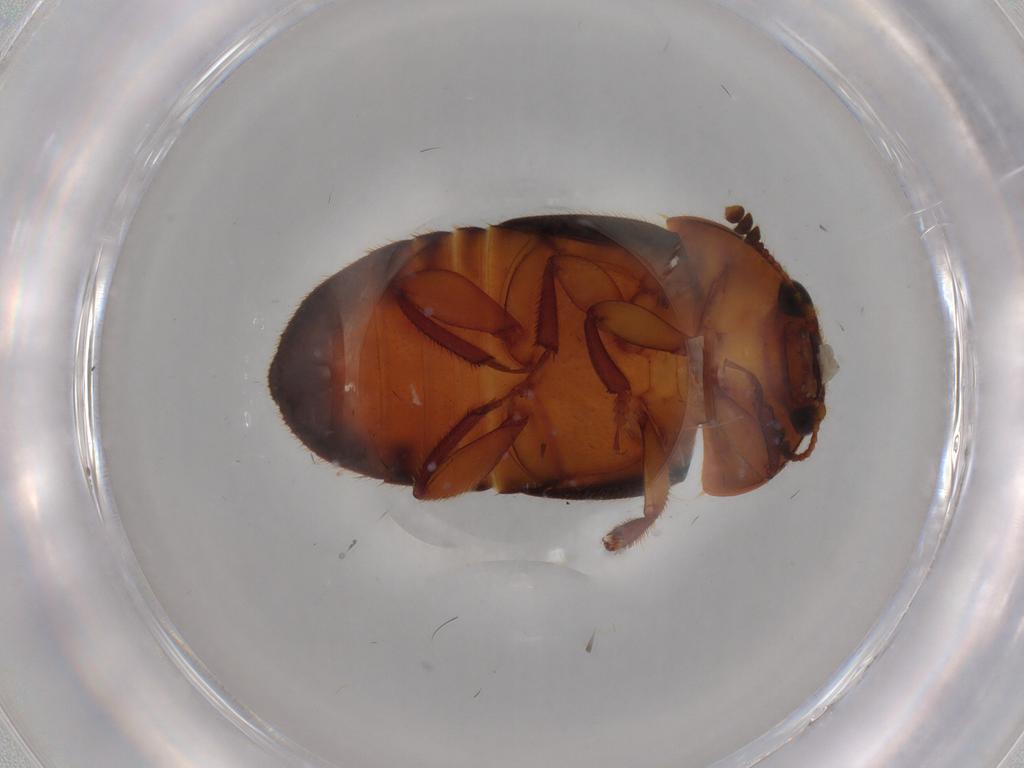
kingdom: Animalia
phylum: Arthropoda
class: Insecta
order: Coleoptera
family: Nitidulidae
